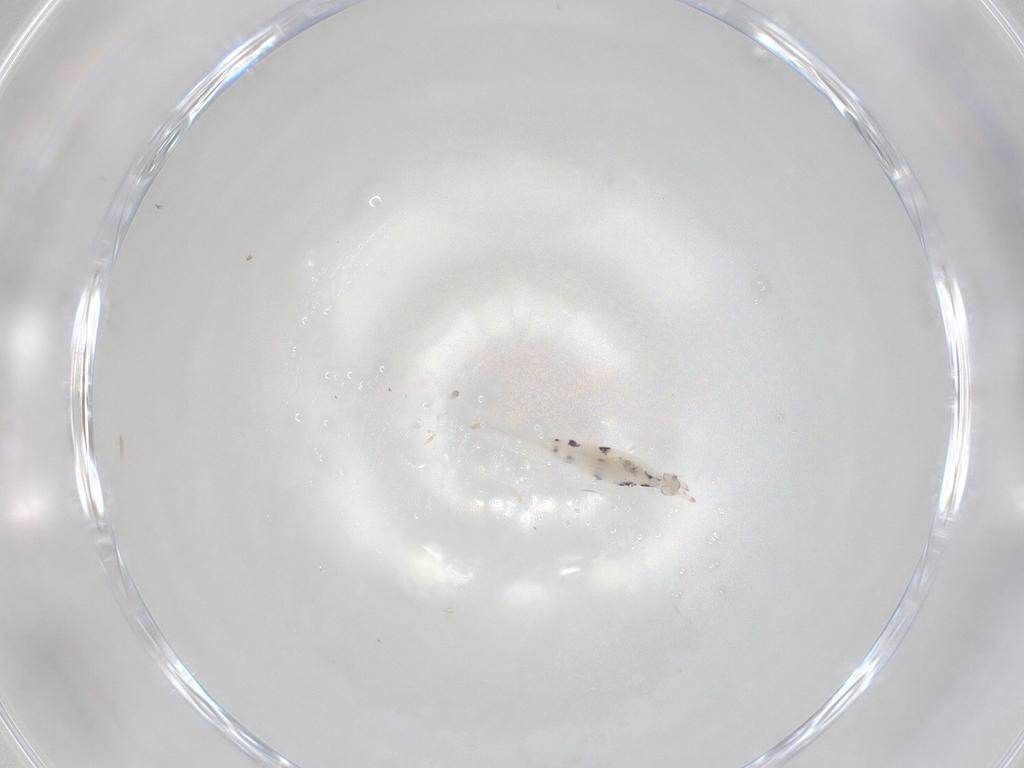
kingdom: Animalia
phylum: Arthropoda
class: Collembola
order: Entomobryomorpha
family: Entomobryidae
